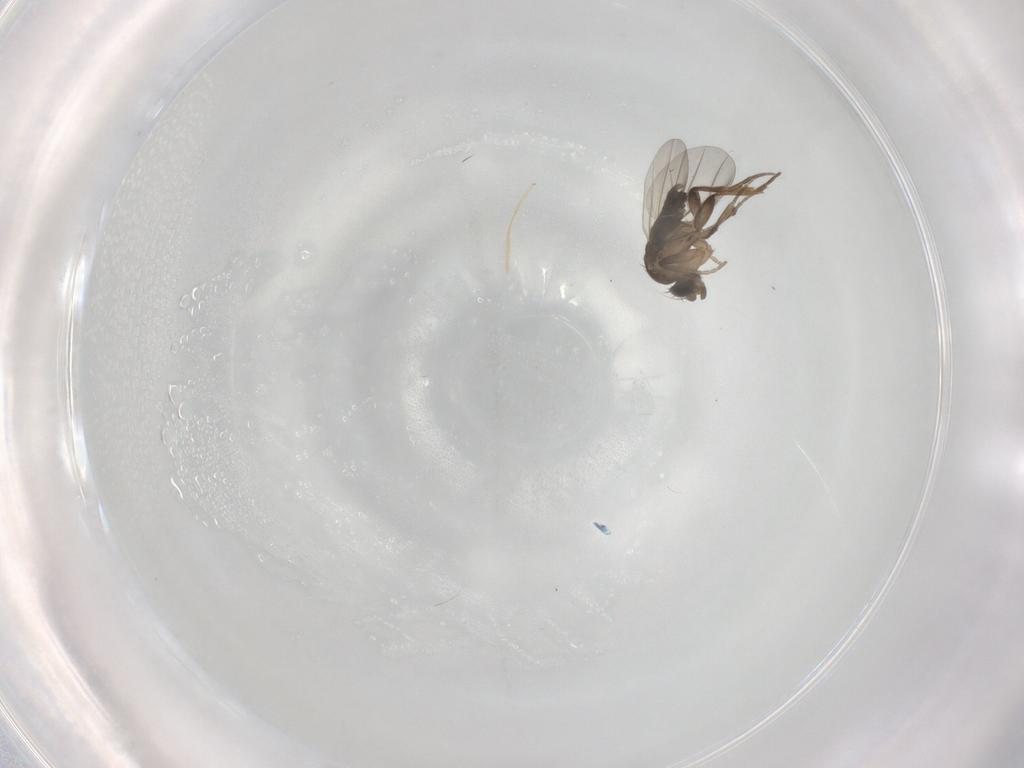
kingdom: Animalia
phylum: Arthropoda
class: Insecta
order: Diptera
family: Phoridae
